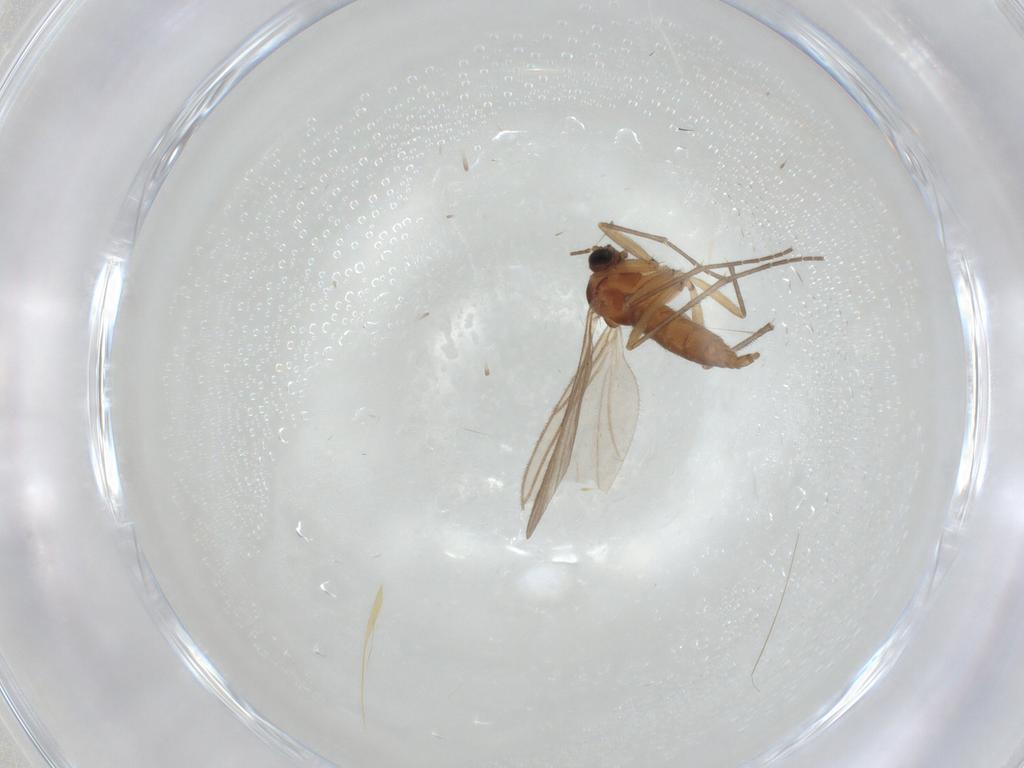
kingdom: Animalia
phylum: Arthropoda
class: Insecta
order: Diptera
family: Sciaridae
